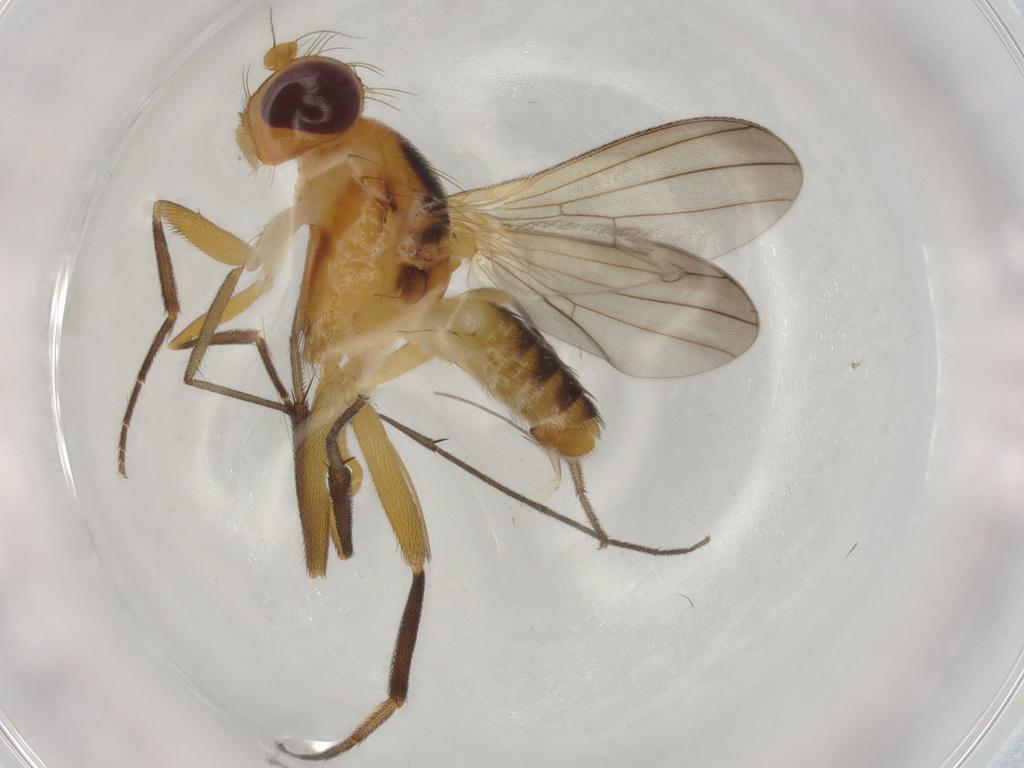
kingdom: Animalia
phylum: Arthropoda
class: Insecta
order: Diptera
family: Clusiidae
